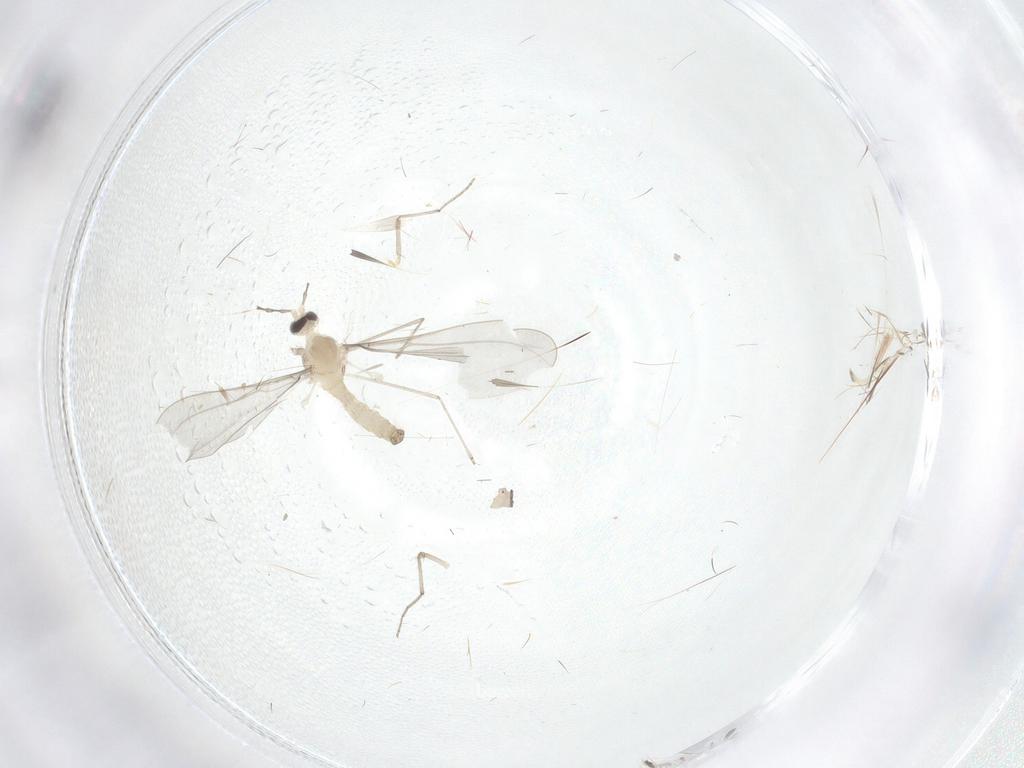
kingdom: Animalia
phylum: Arthropoda
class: Insecta
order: Diptera
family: Cecidomyiidae
